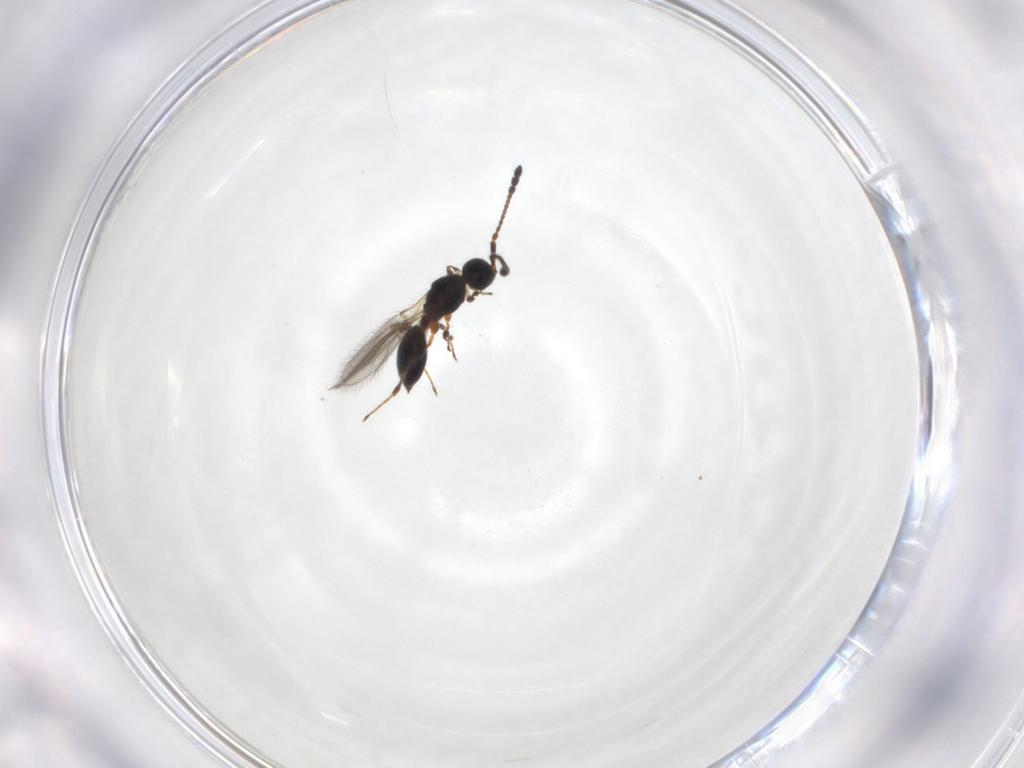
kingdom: Animalia
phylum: Arthropoda
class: Insecta
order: Hymenoptera
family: Diapriidae
